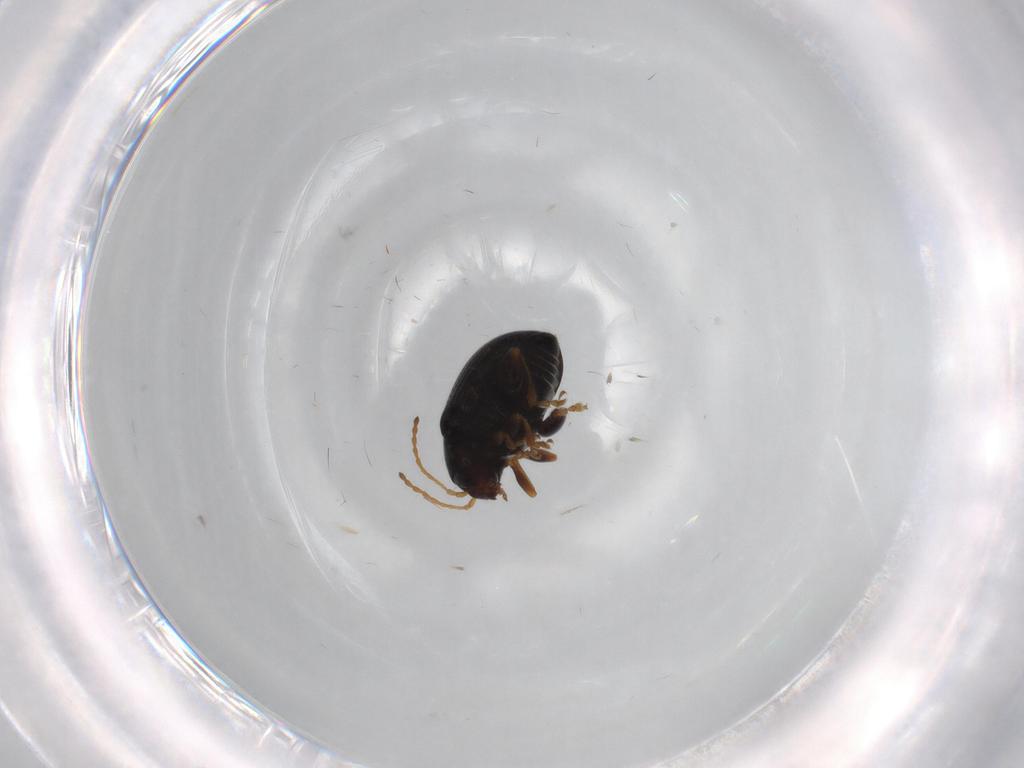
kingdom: Animalia
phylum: Arthropoda
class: Insecta
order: Coleoptera
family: Chrysomelidae
